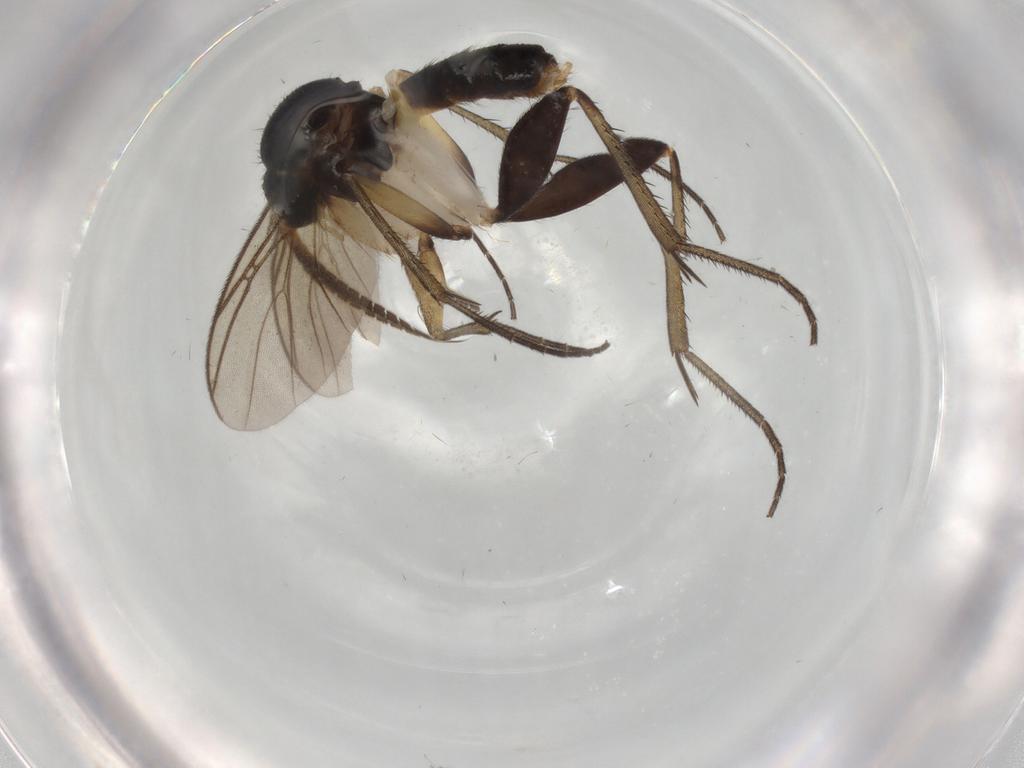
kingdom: Animalia
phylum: Arthropoda
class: Insecta
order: Diptera
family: Mycetophilidae
